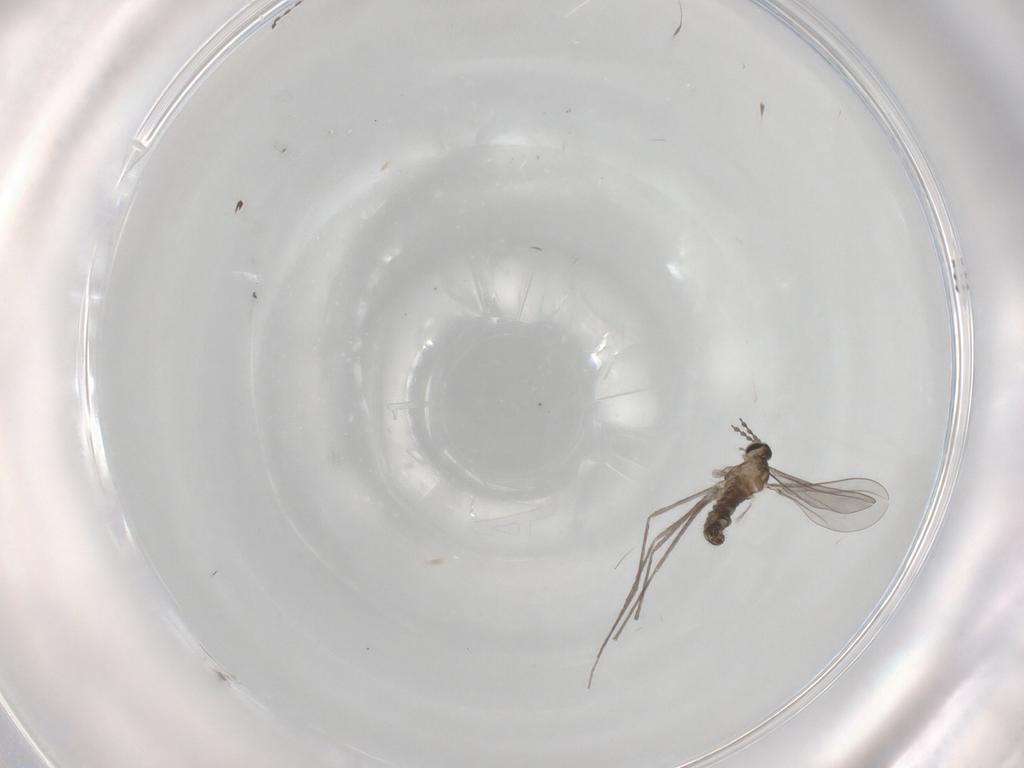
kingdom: Animalia
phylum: Arthropoda
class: Insecta
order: Diptera
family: Cecidomyiidae
